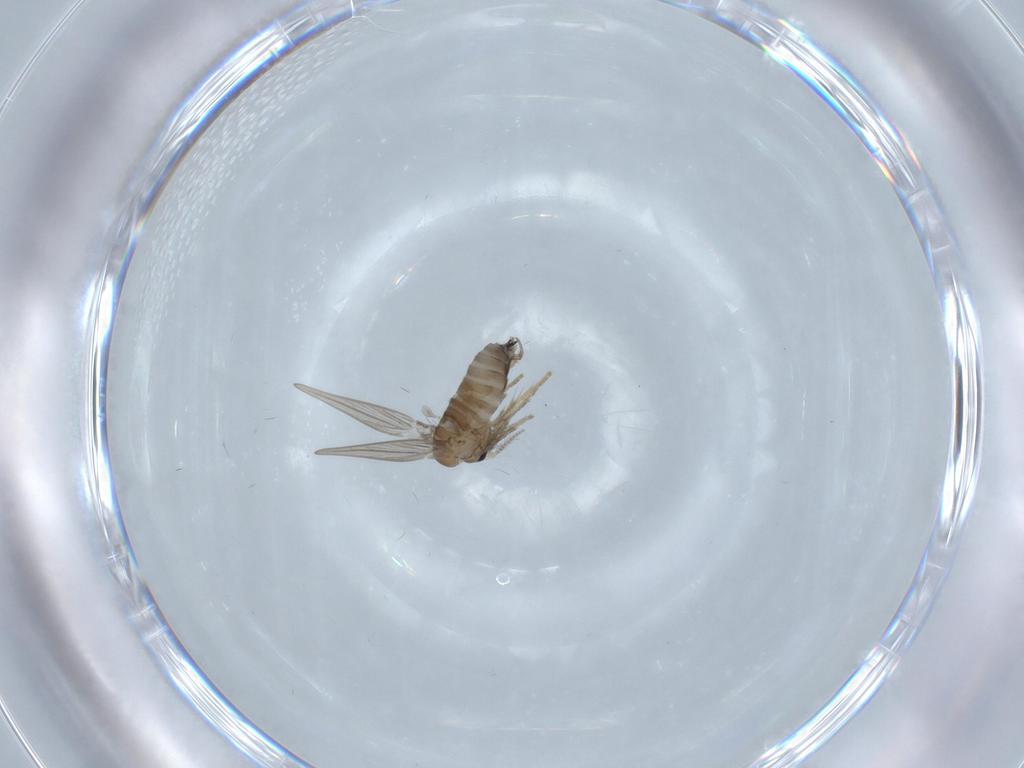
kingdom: Animalia
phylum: Arthropoda
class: Insecta
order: Diptera
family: Psychodidae
